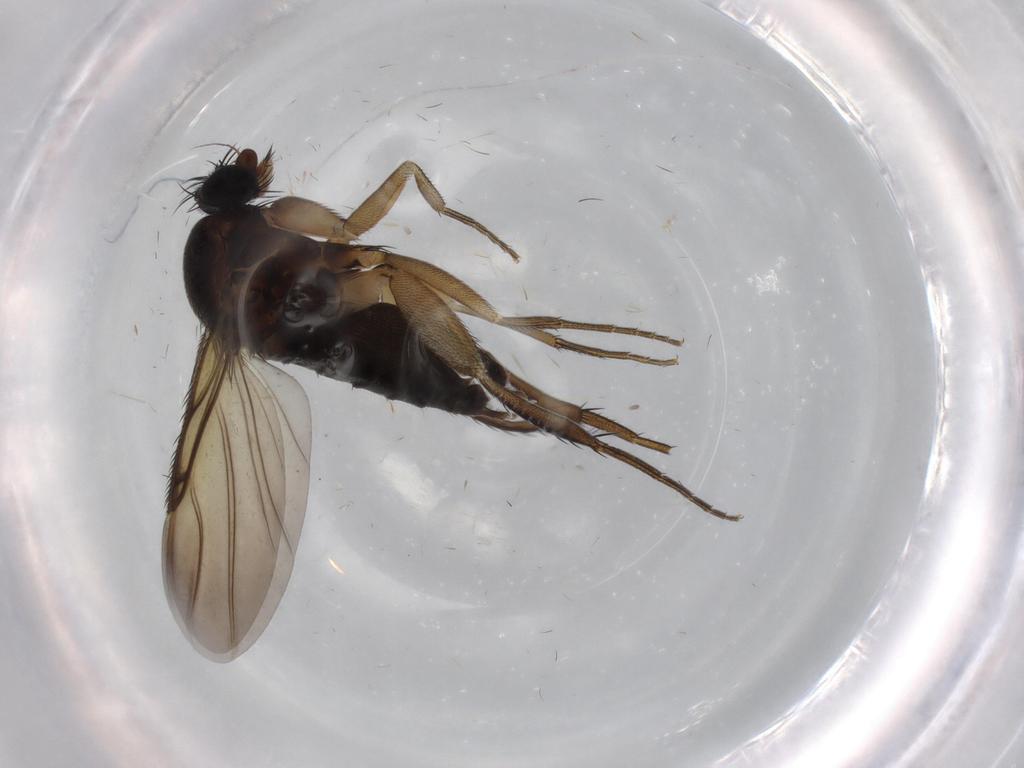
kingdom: Animalia
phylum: Arthropoda
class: Insecta
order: Diptera
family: Phoridae
